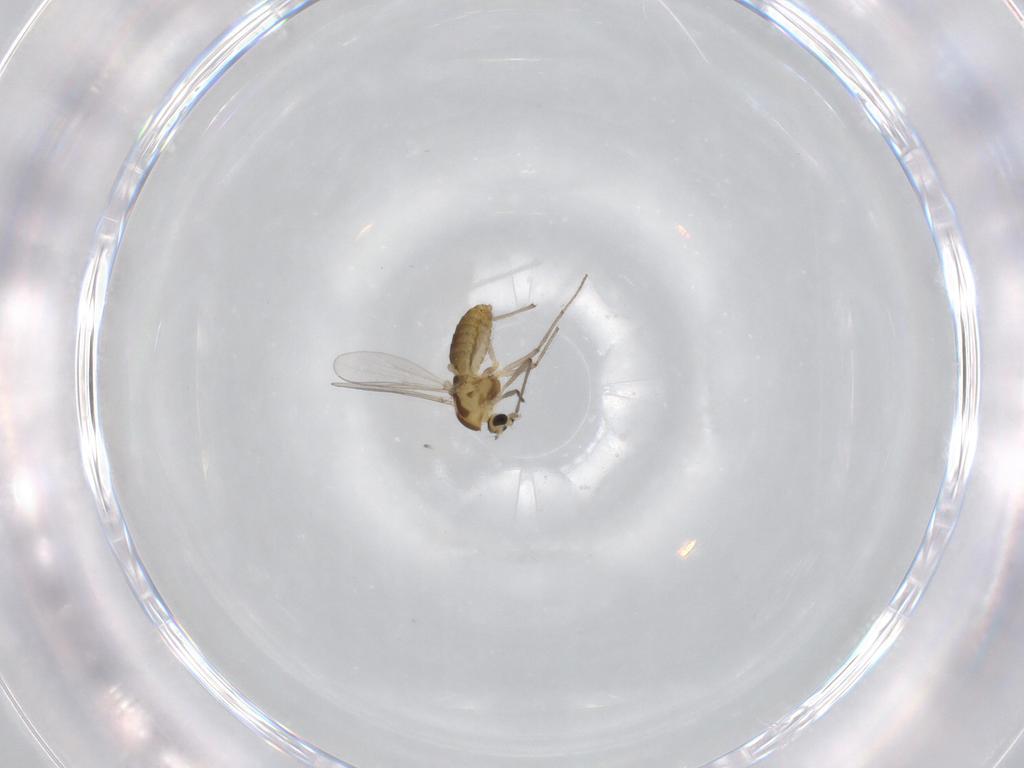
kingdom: Animalia
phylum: Arthropoda
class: Insecta
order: Diptera
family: Chironomidae
